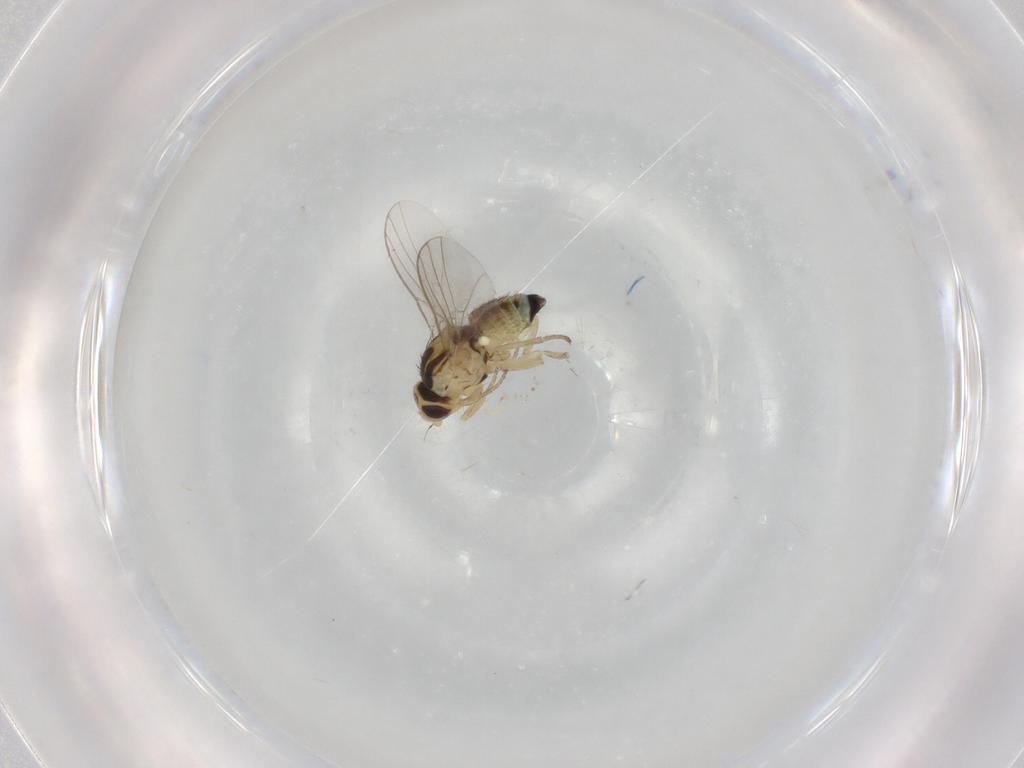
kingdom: Animalia
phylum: Arthropoda
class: Insecta
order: Diptera
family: Agromyzidae
